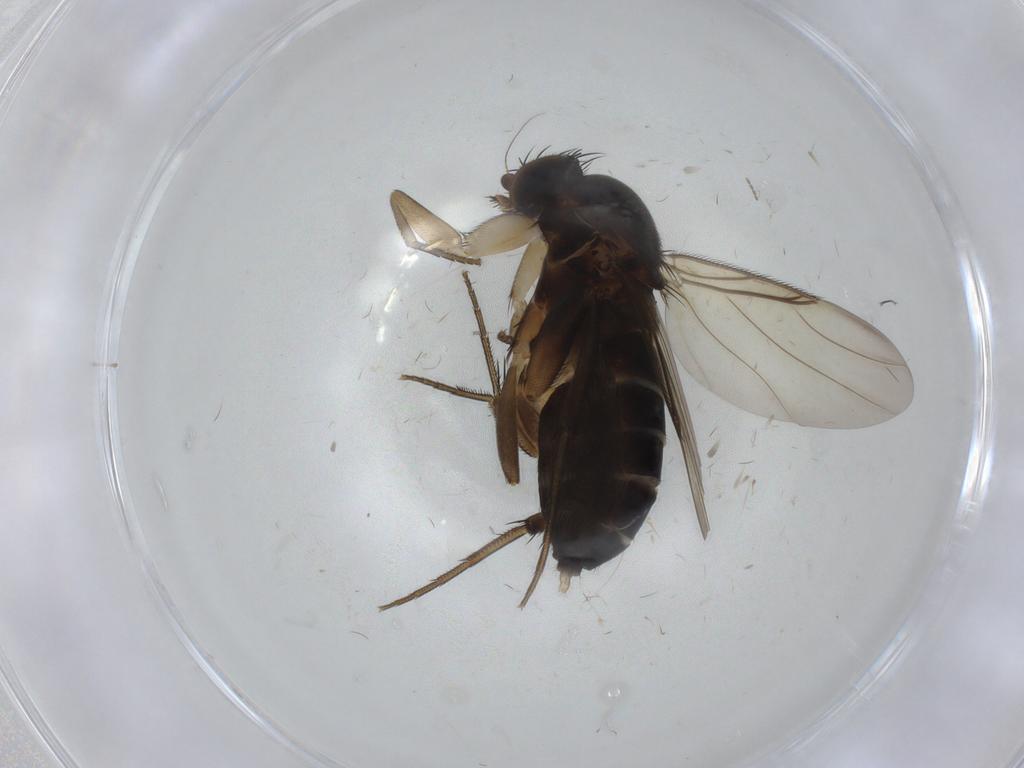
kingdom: Animalia
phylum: Arthropoda
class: Insecta
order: Diptera
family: Phoridae
